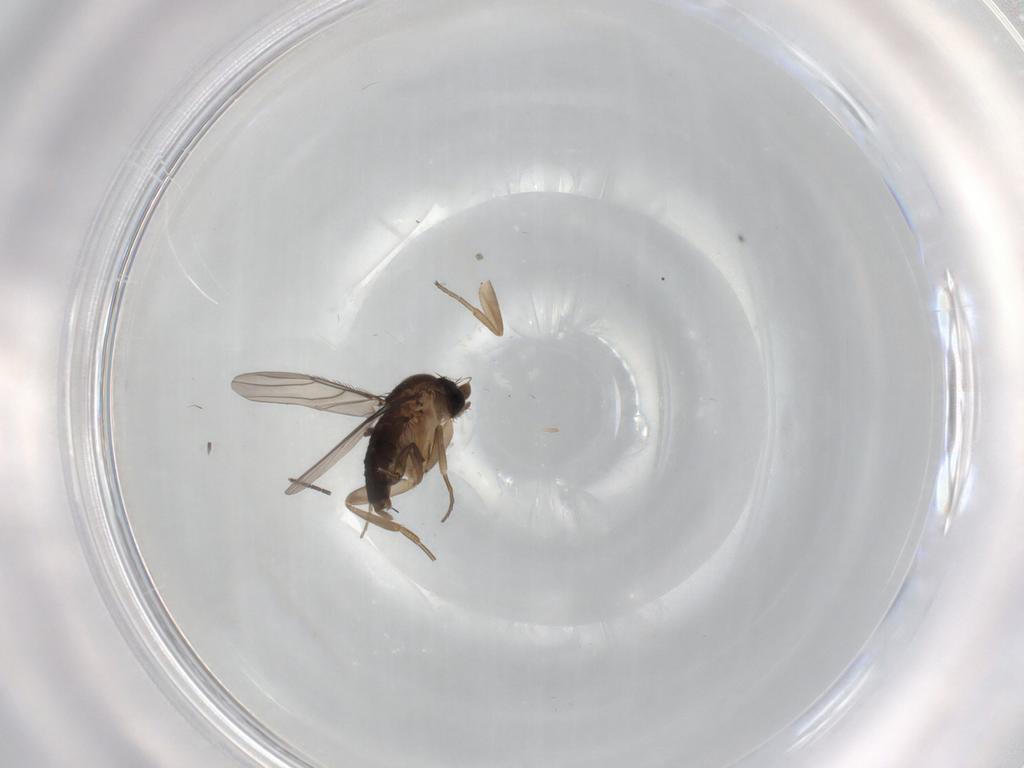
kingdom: Animalia
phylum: Arthropoda
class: Insecta
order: Diptera
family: Phoridae
